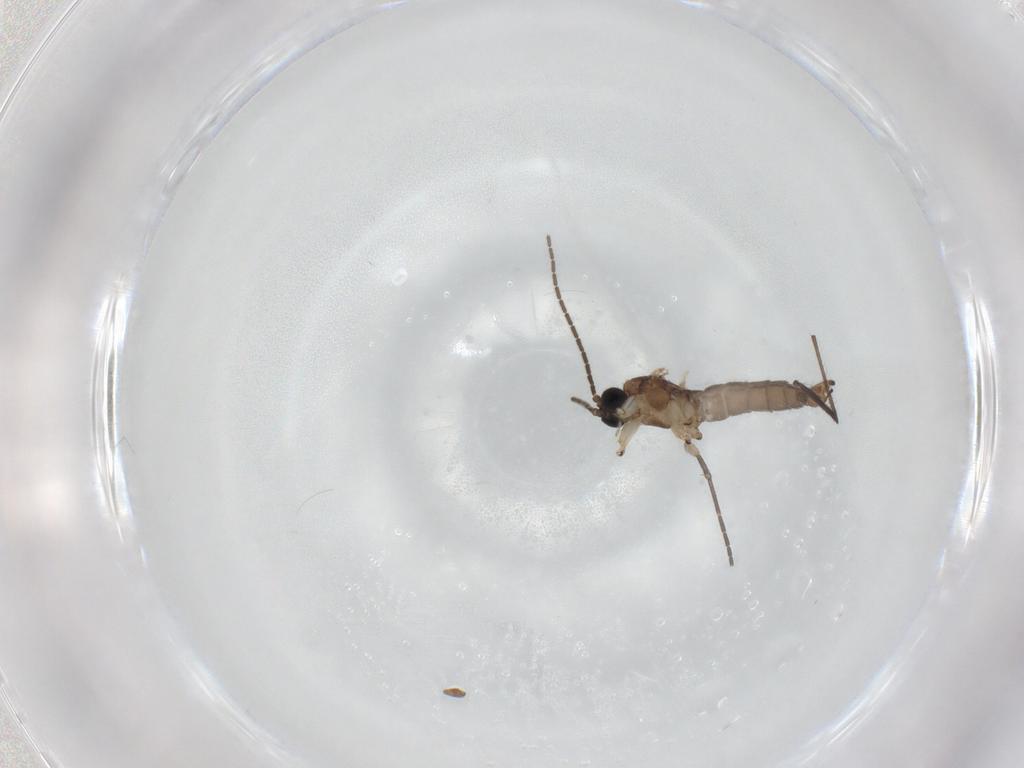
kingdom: Animalia
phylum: Arthropoda
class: Insecta
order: Diptera
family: Sciaridae
